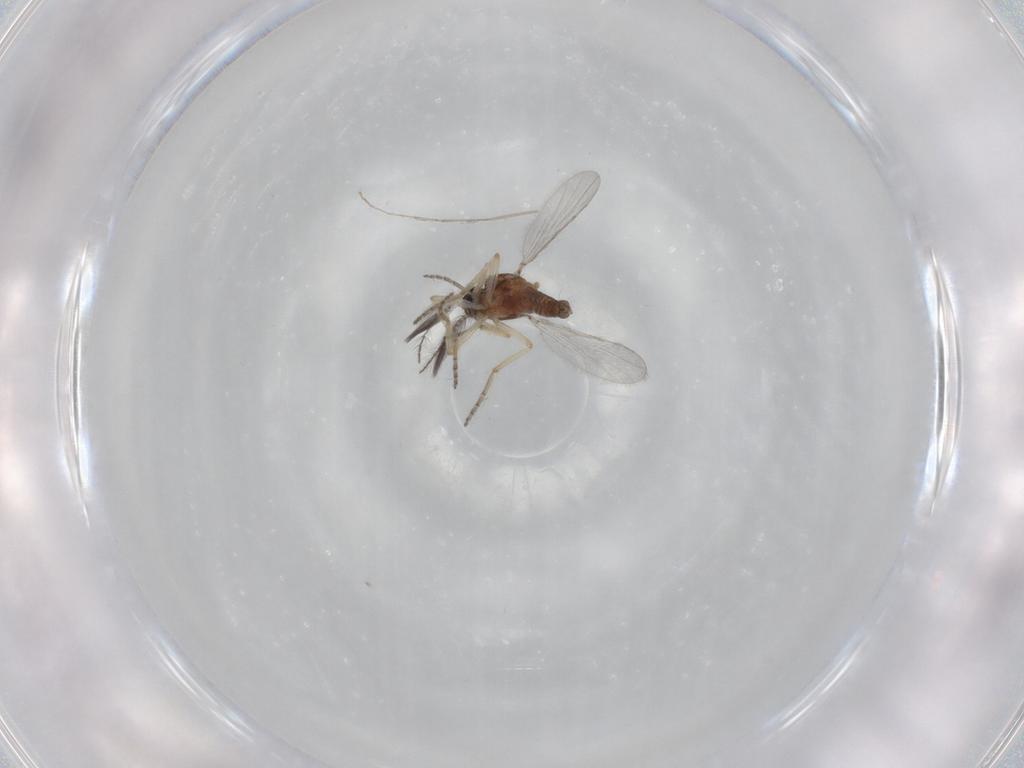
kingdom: Animalia
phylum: Arthropoda
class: Insecta
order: Diptera
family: Ceratopogonidae
